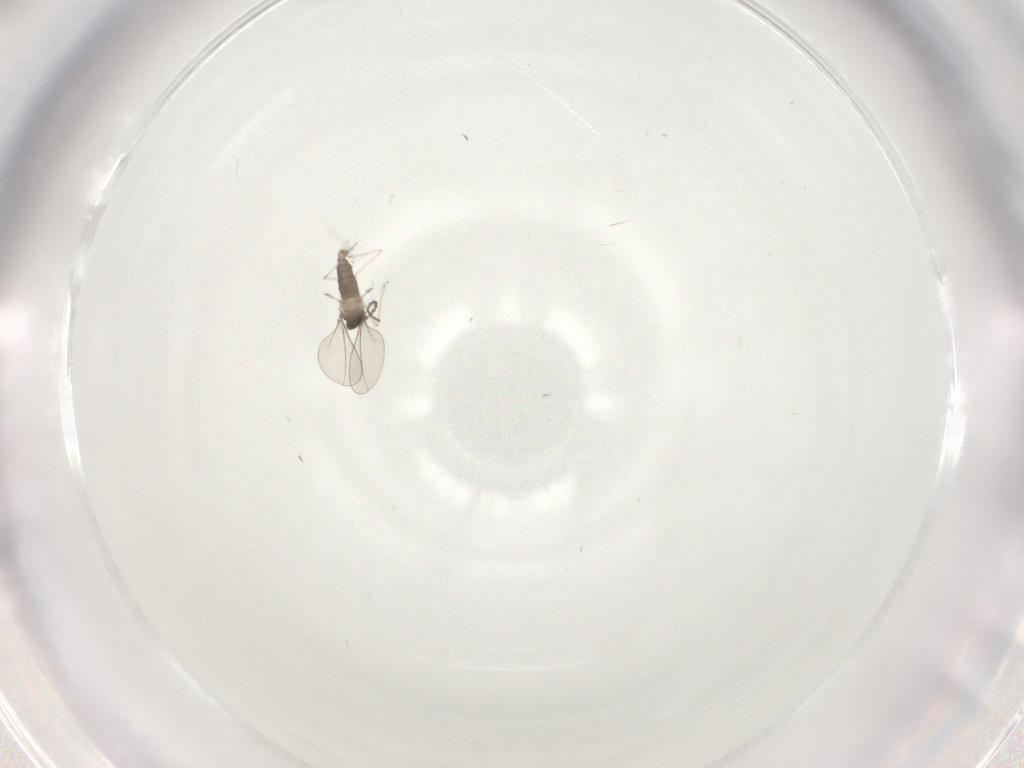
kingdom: Animalia
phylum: Arthropoda
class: Insecta
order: Diptera
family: Cecidomyiidae
